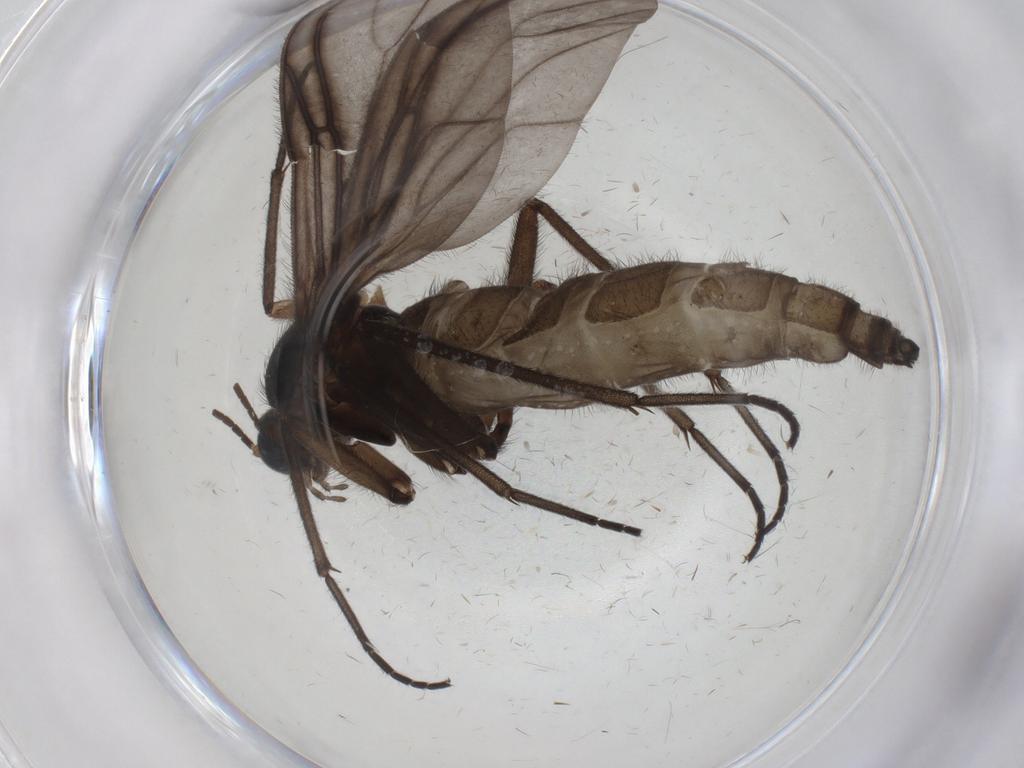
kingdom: Animalia
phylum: Arthropoda
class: Insecta
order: Diptera
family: Sciaridae
